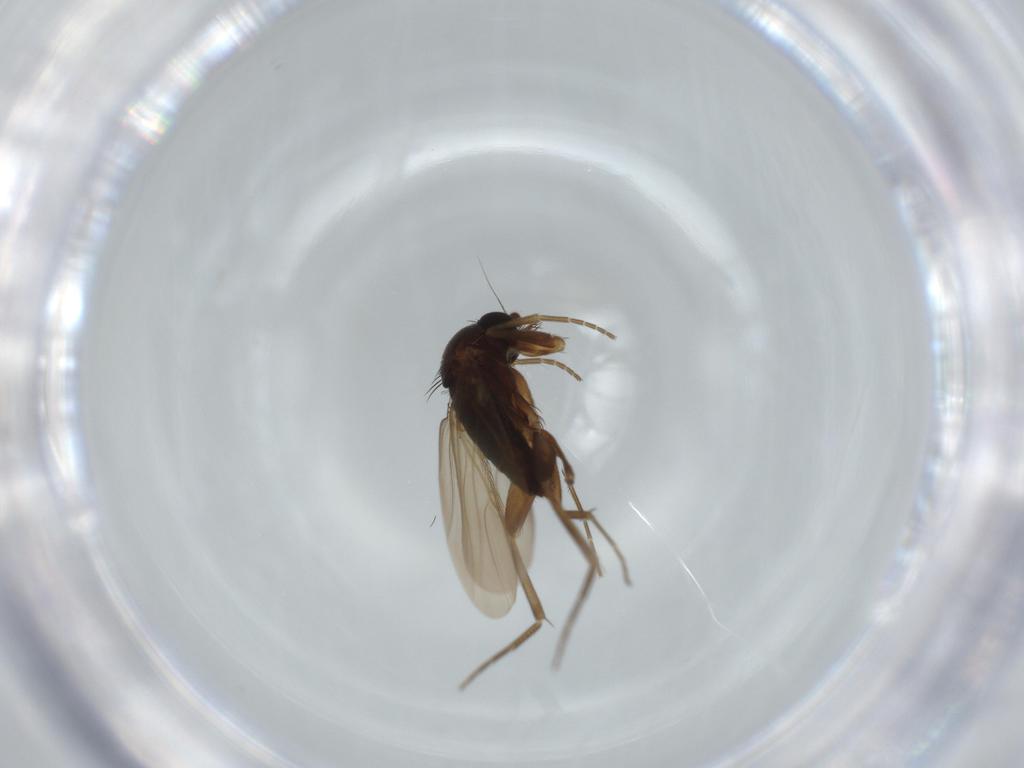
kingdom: Animalia
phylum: Arthropoda
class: Insecta
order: Diptera
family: Phoridae
